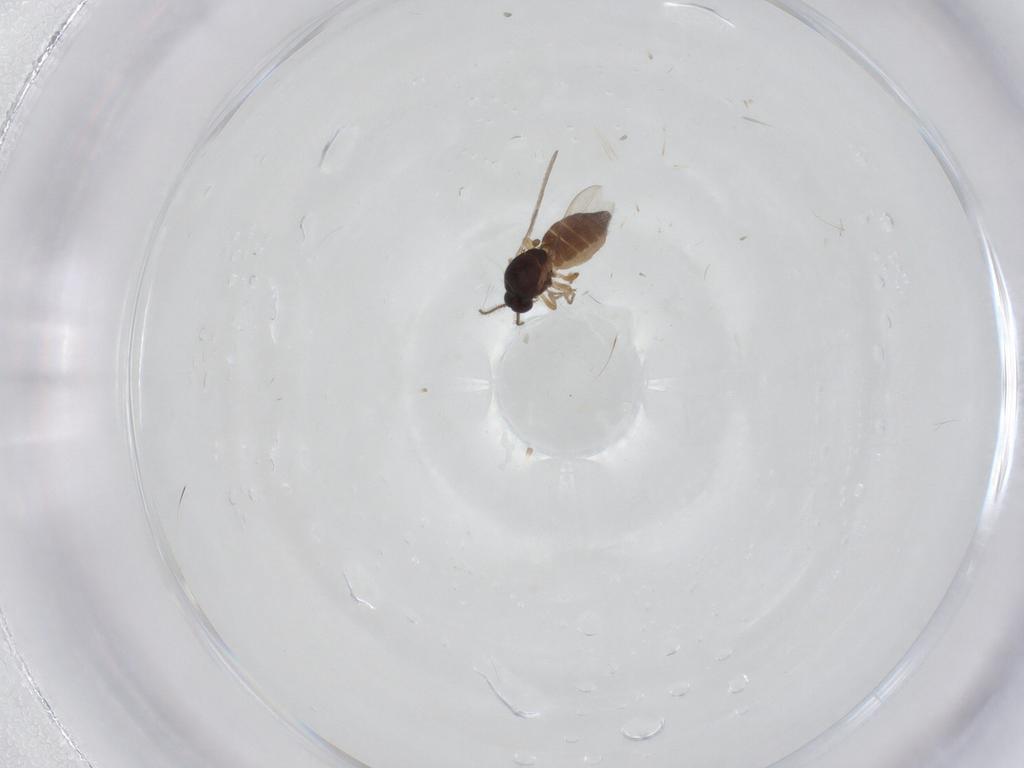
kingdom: Animalia
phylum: Arthropoda
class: Insecta
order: Diptera
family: Ceratopogonidae
